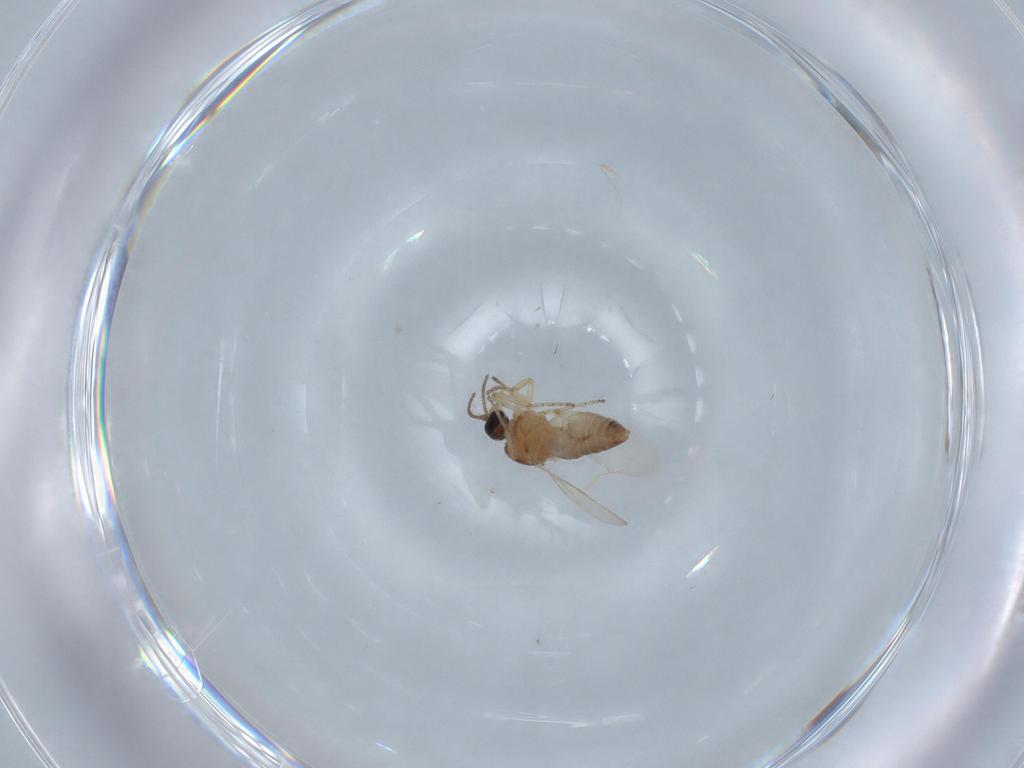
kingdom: Animalia
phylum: Arthropoda
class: Insecta
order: Diptera
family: Ceratopogonidae
